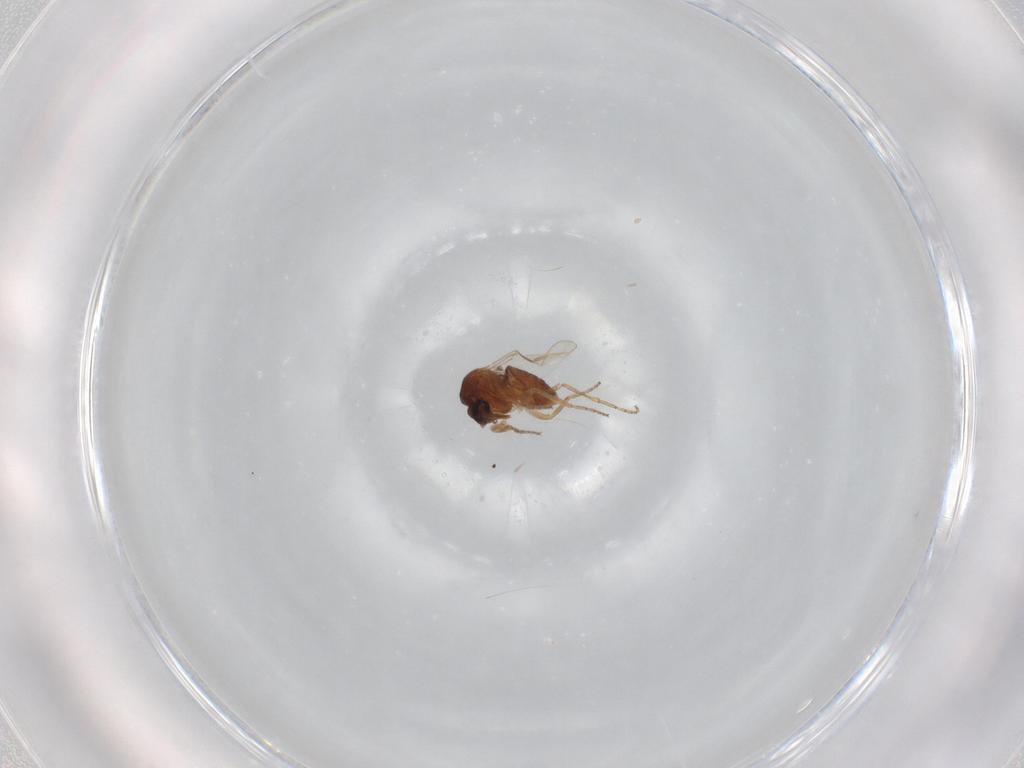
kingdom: Animalia
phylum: Arthropoda
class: Insecta
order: Diptera
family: Ceratopogonidae
